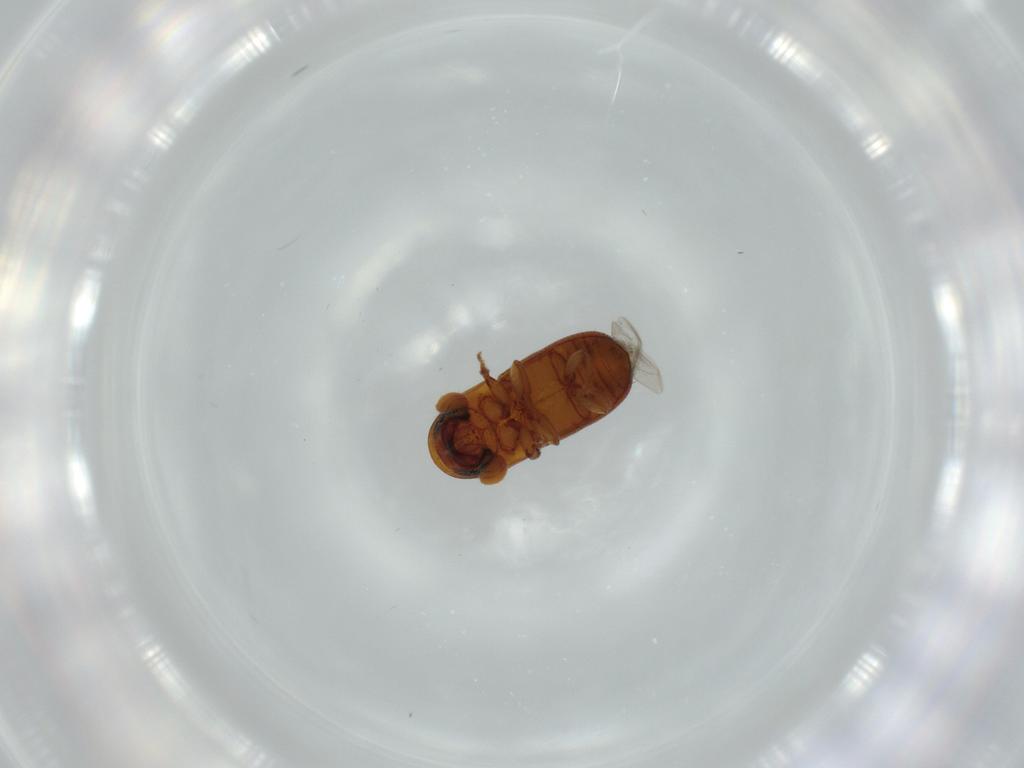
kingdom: Animalia
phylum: Arthropoda
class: Insecta
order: Coleoptera
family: Curculionidae
